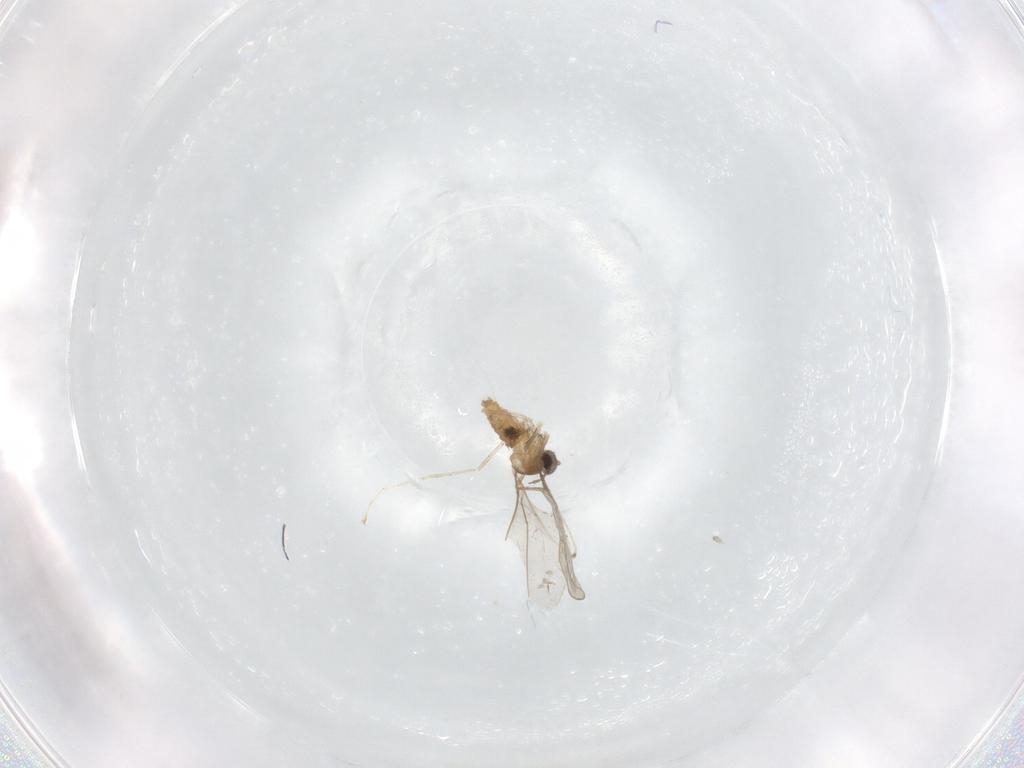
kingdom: Animalia
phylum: Arthropoda
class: Insecta
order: Diptera
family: Cecidomyiidae
